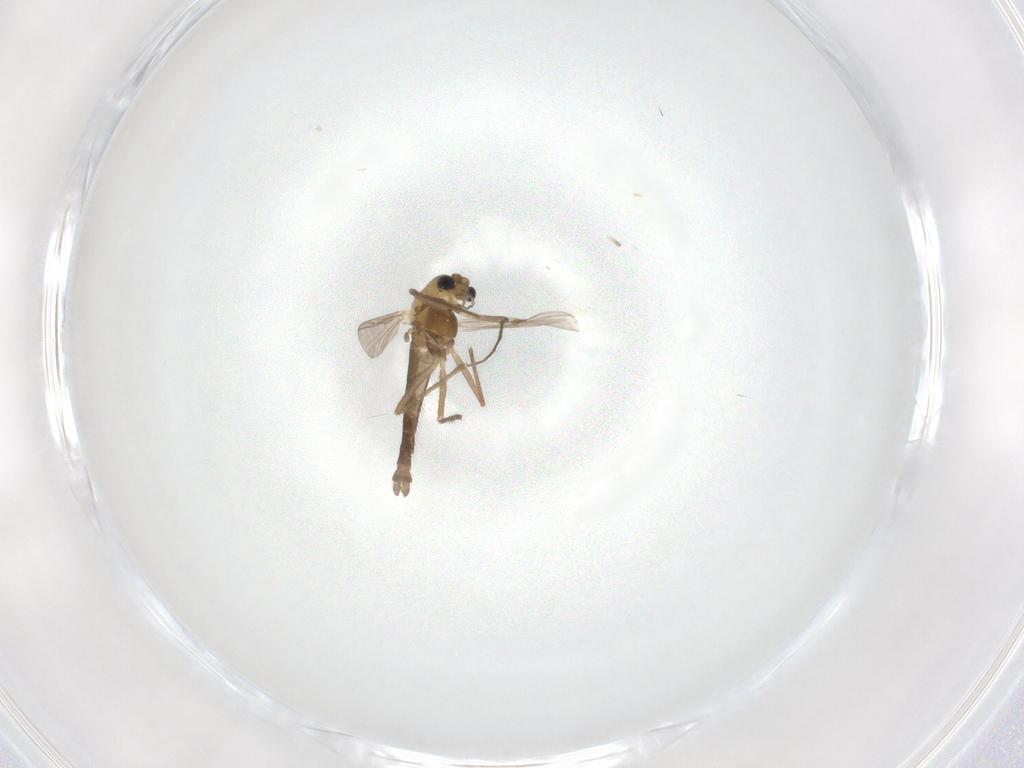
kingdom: Animalia
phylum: Arthropoda
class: Insecta
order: Diptera
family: Chironomidae
